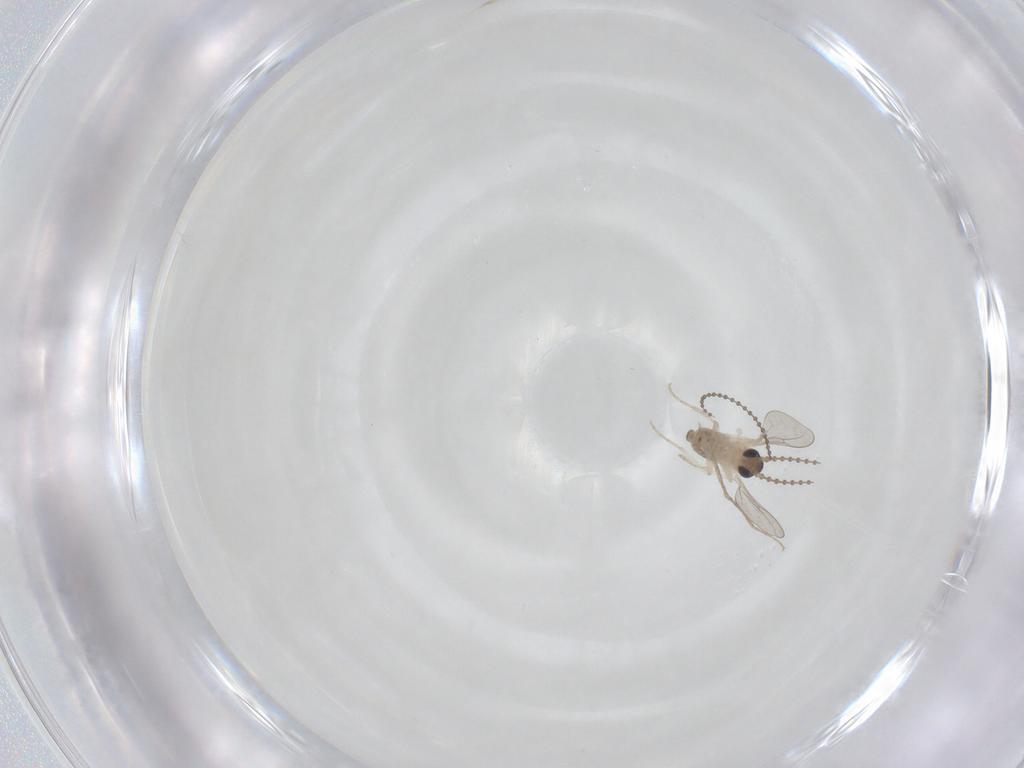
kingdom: Animalia
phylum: Arthropoda
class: Insecta
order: Diptera
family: Cecidomyiidae
